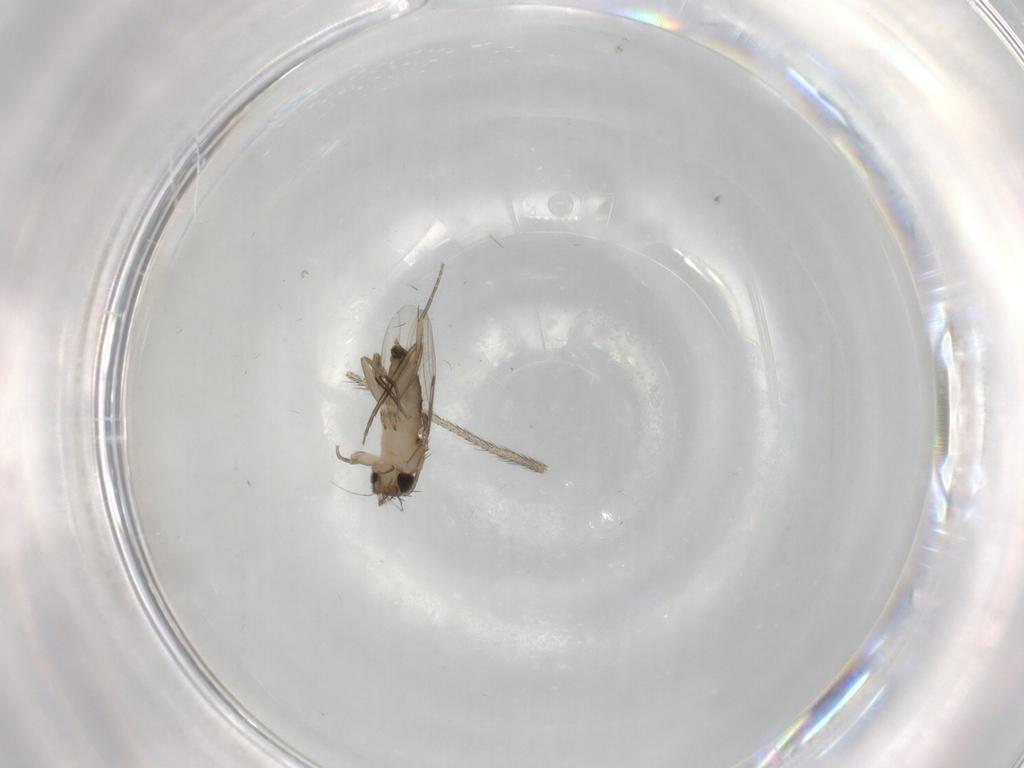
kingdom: Animalia
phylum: Arthropoda
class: Insecta
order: Diptera
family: Phoridae
